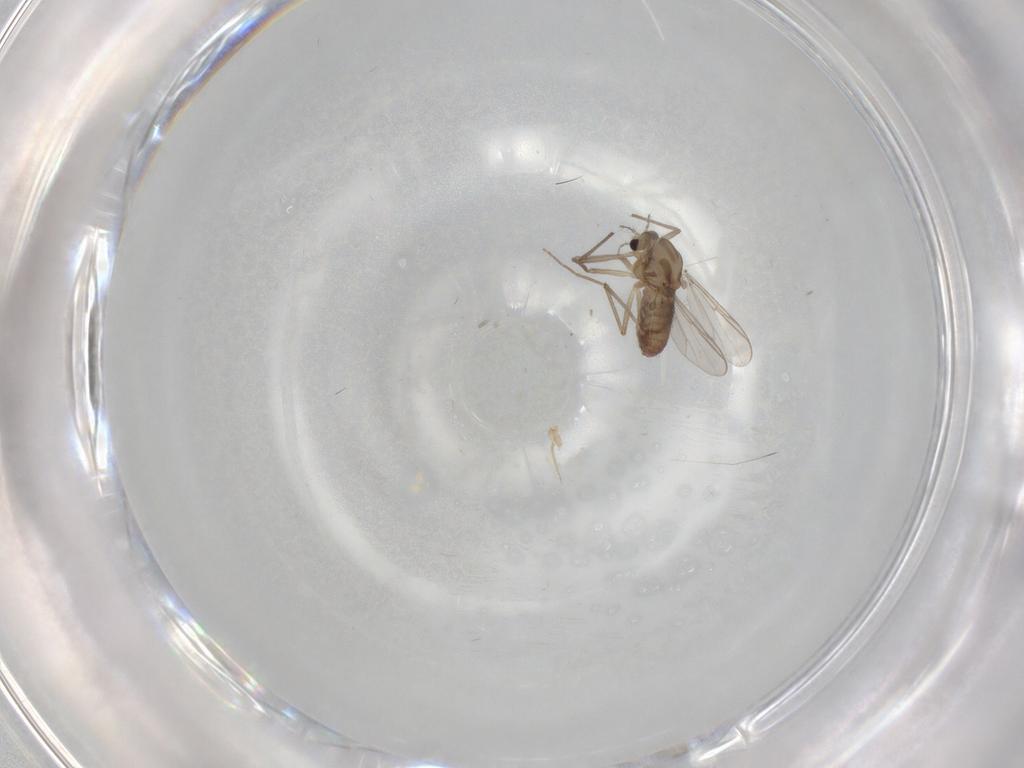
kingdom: Animalia
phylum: Arthropoda
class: Insecta
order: Diptera
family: Chironomidae
